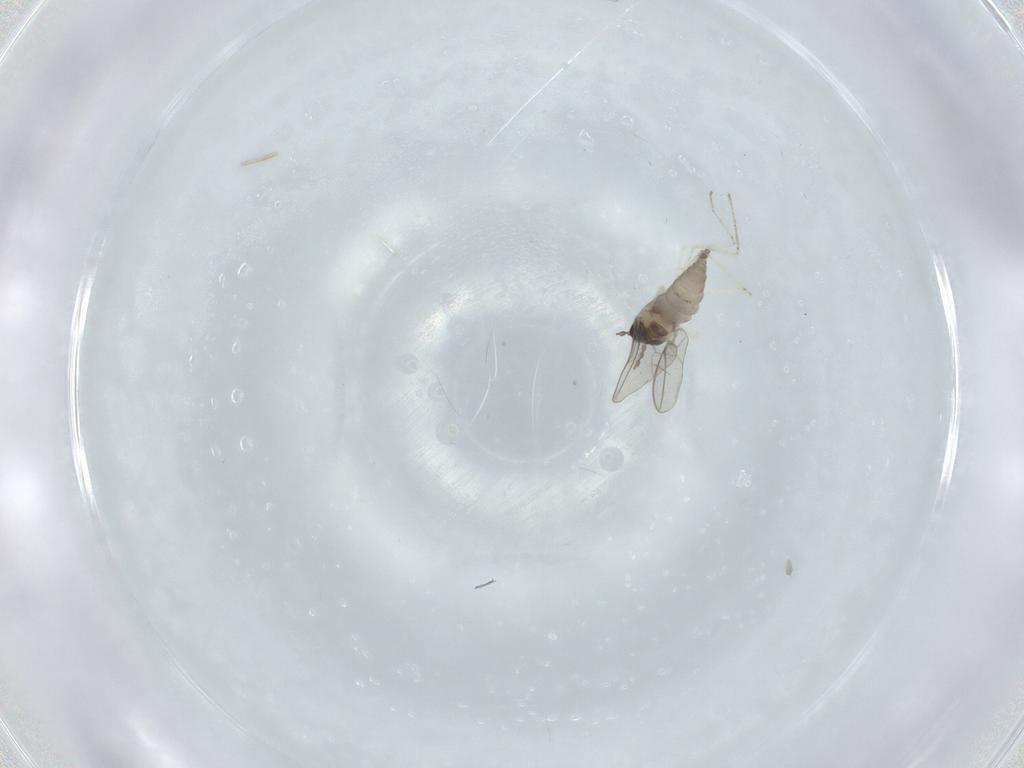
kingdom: Animalia
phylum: Arthropoda
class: Insecta
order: Diptera
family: Cecidomyiidae
